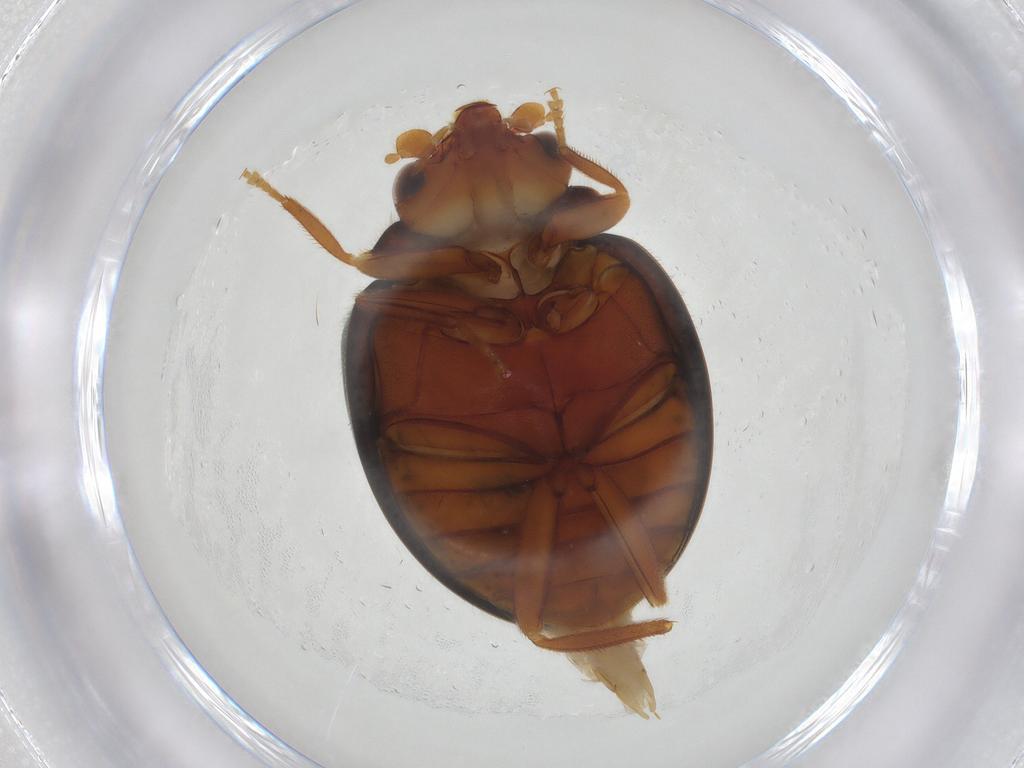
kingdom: Animalia
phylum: Arthropoda
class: Insecta
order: Coleoptera
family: Scirtidae
